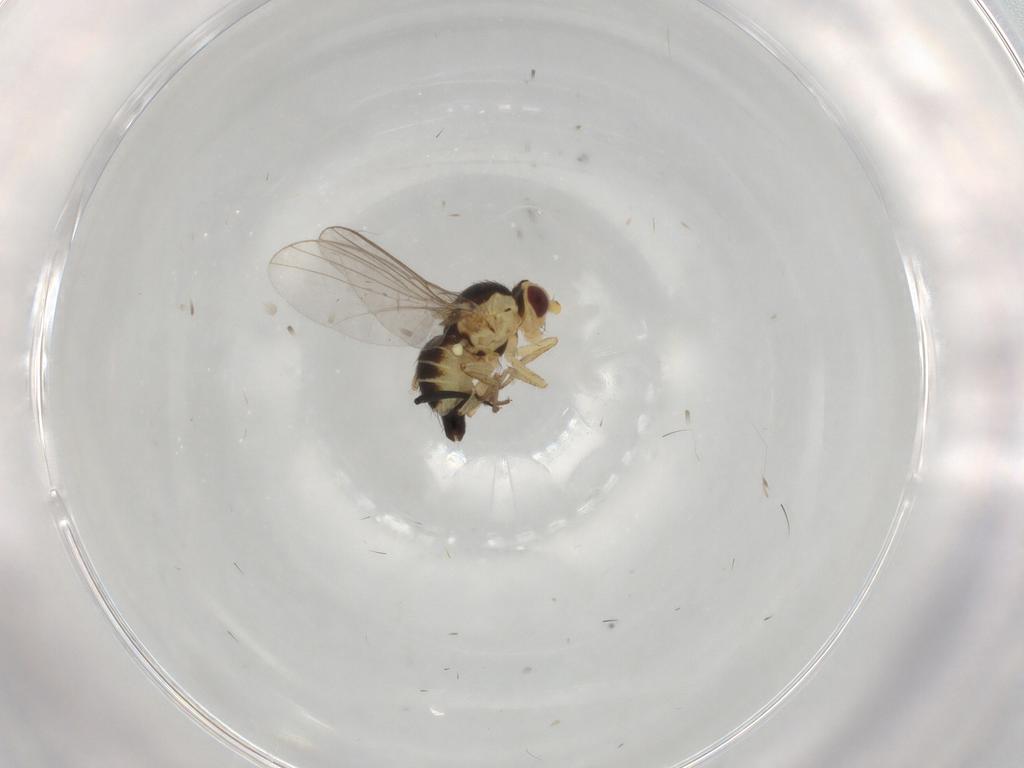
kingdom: Animalia
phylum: Arthropoda
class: Insecta
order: Diptera
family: Agromyzidae
